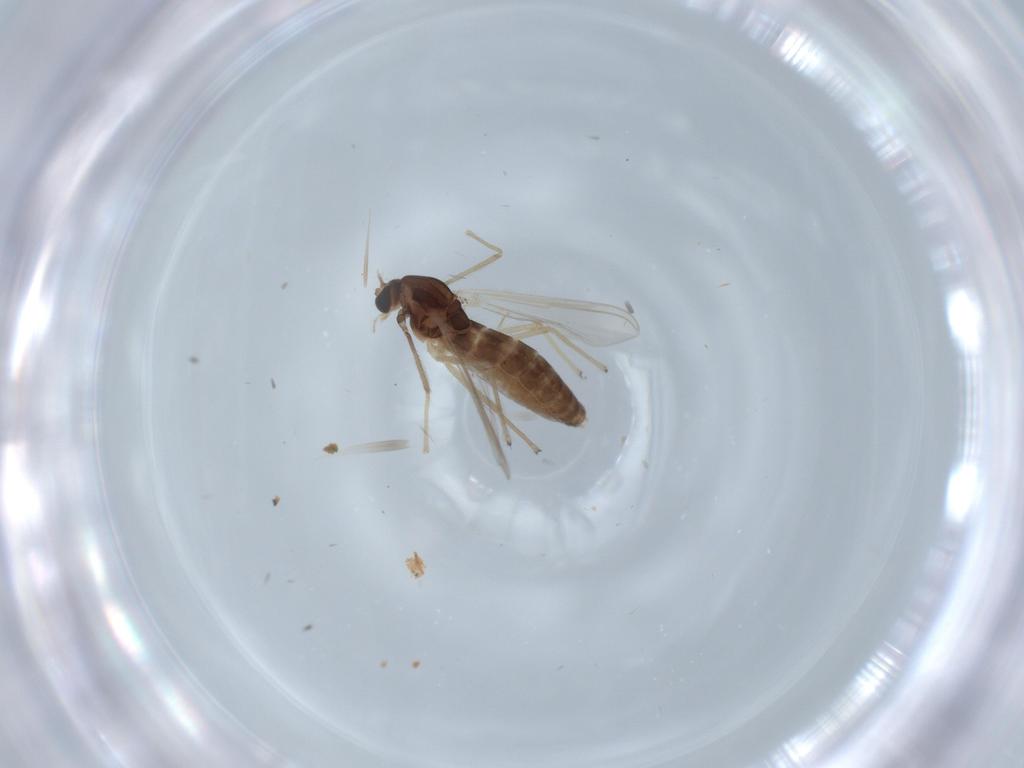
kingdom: Animalia
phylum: Arthropoda
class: Insecta
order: Diptera
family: Chironomidae
